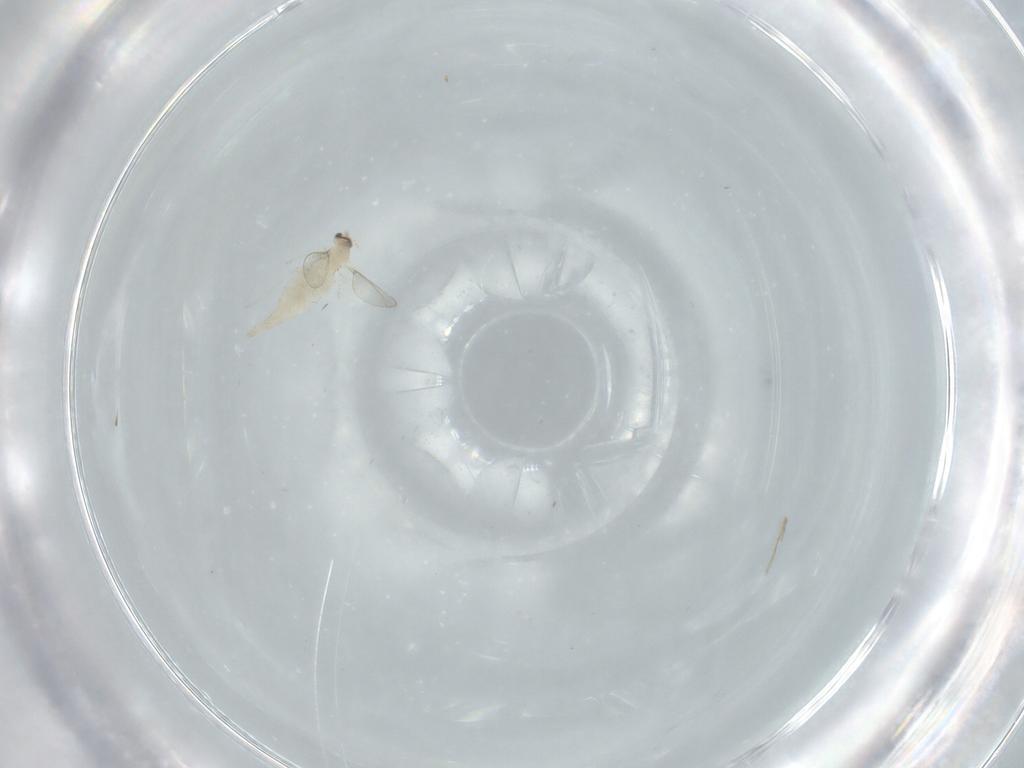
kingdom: Animalia
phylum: Arthropoda
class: Insecta
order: Diptera
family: Cecidomyiidae
